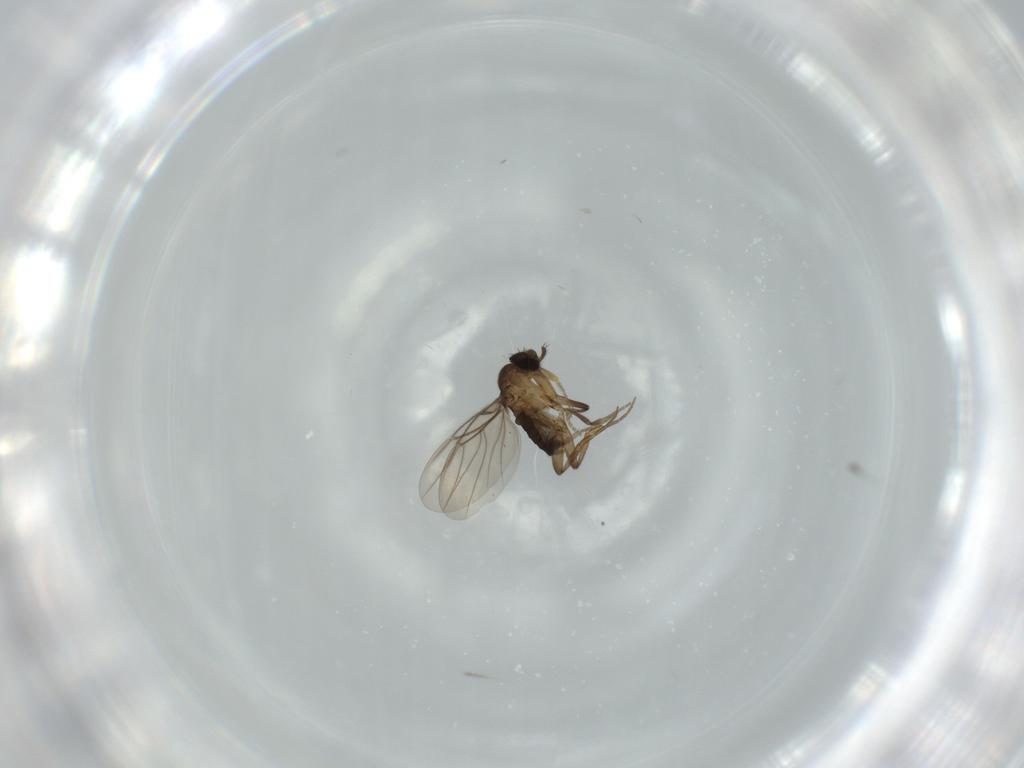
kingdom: Animalia
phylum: Arthropoda
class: Insecta
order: Diptera
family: Phoridae
